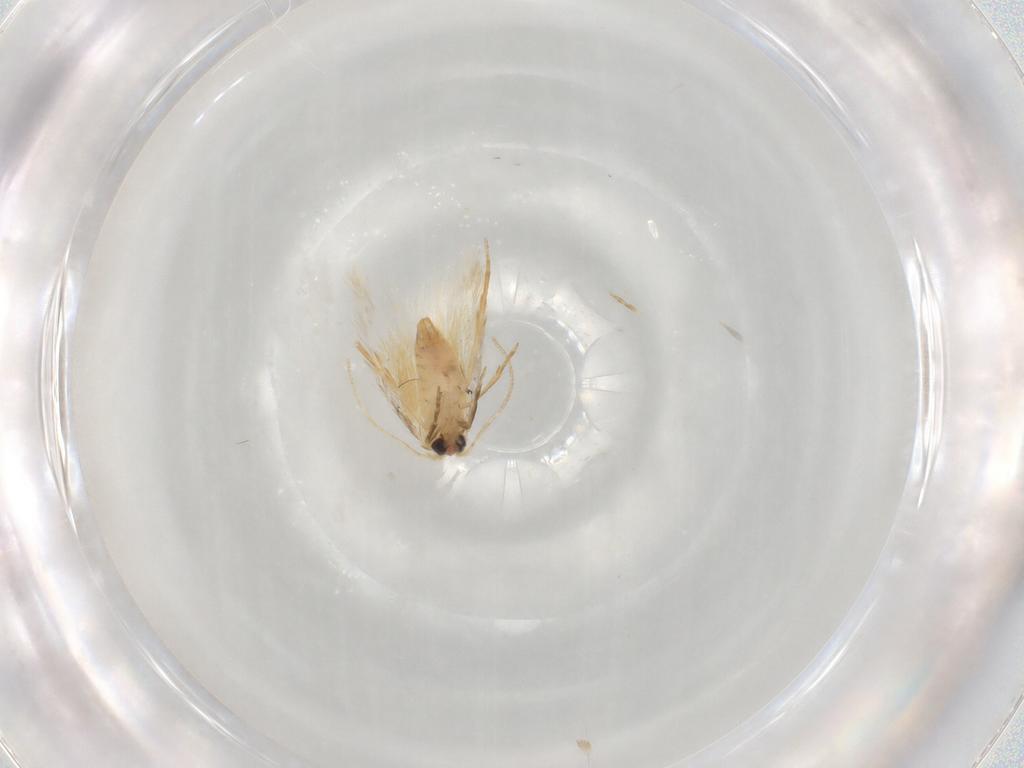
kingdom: Animalia
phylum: Arthropoda
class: Insecta
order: Lepidoptera
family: Nepticulidae
